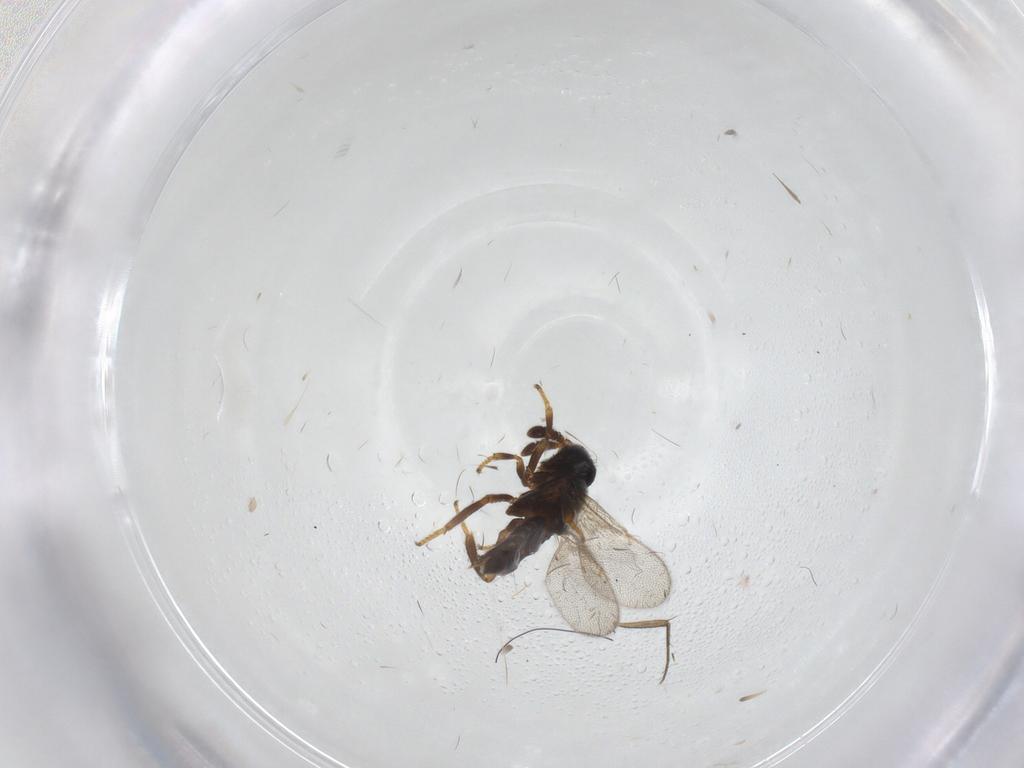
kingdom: Animalia
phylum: Arthropoda
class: Insecta
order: Hymenoptera
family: Encyrtidae
